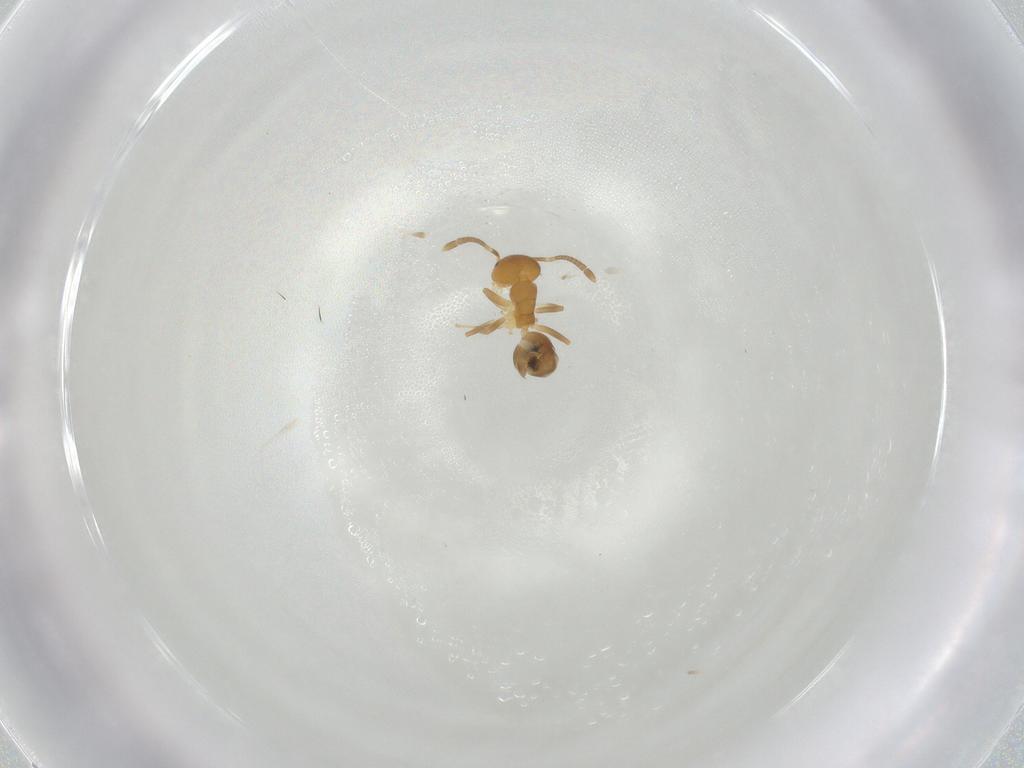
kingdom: Animalia
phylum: Arthropoda
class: Insecta
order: Hymenoptera
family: Formicidae
